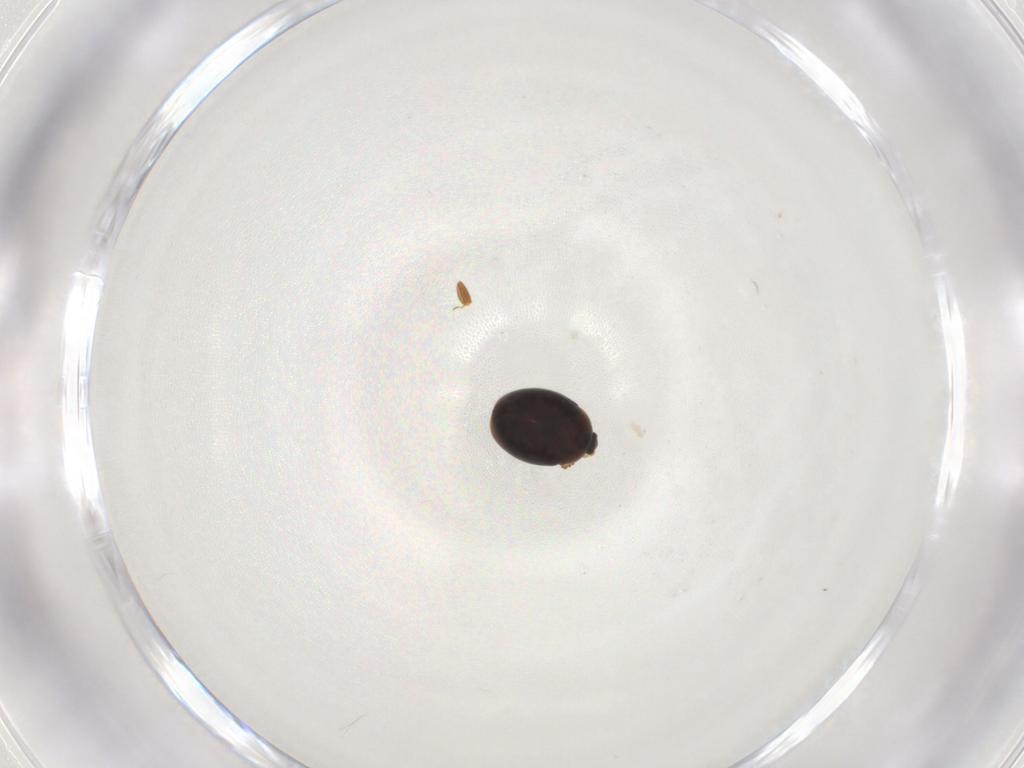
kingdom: Animalia
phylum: Arthropoda
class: Insecta
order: Coleoptera
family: Corylophidae
